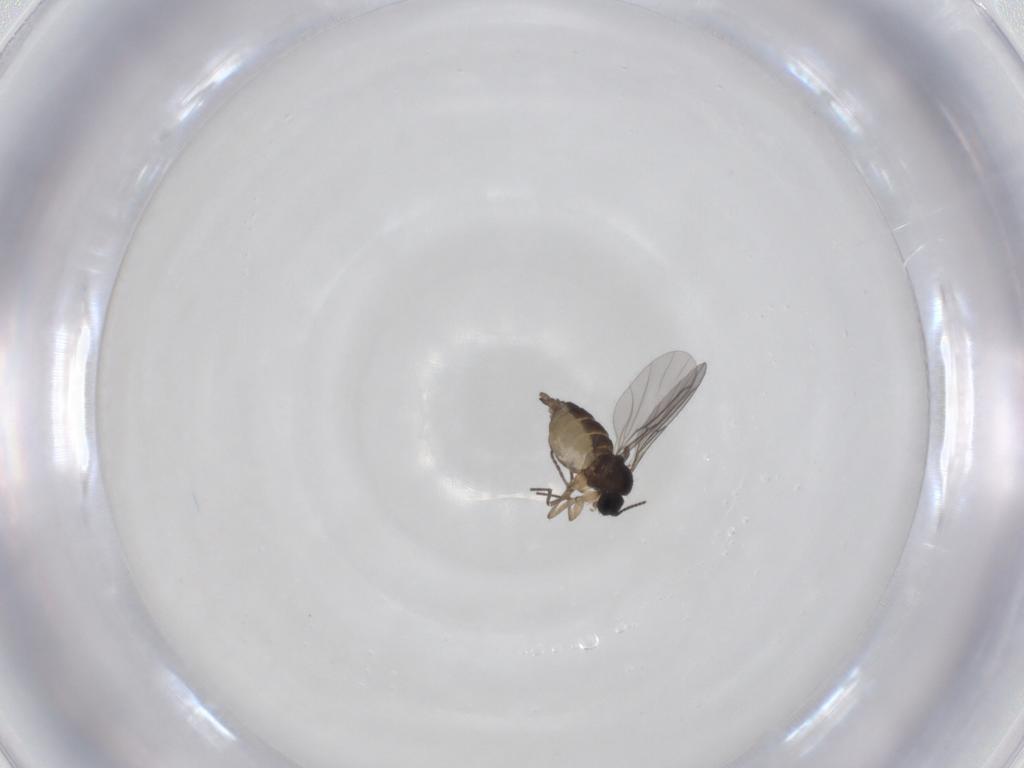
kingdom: Animalia
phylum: Arthropoda
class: Insecta
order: Diptera
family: Sciaridae
